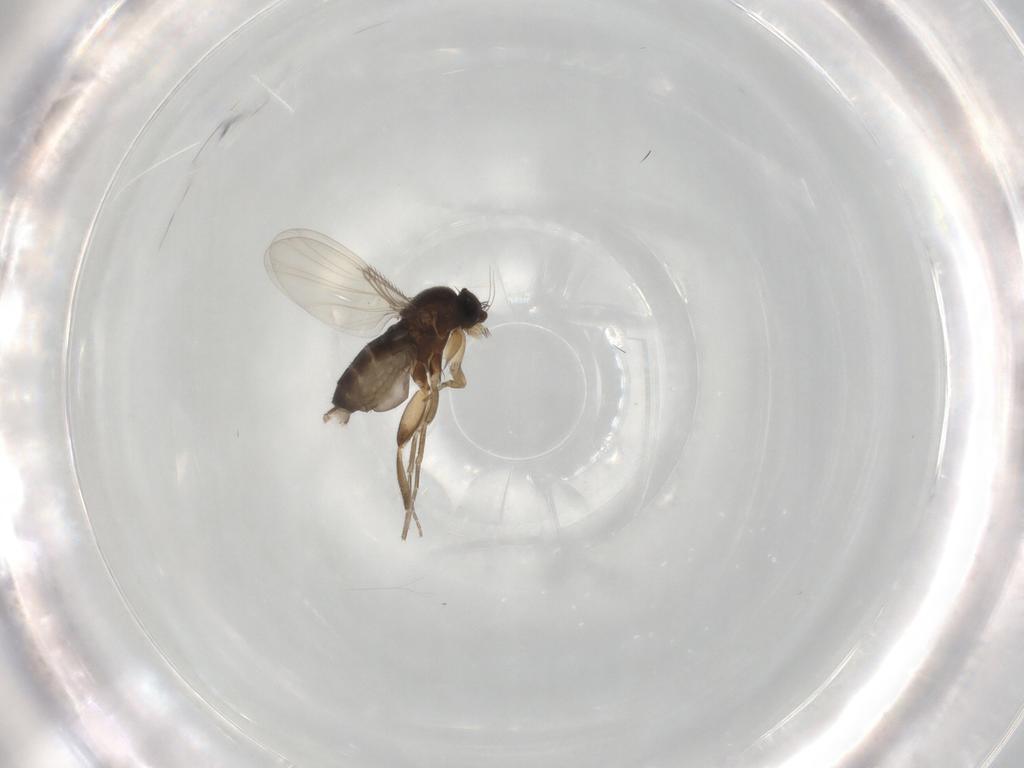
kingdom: Animalia
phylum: Arthropoda
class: Insecta
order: Diptera
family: Phoridae
